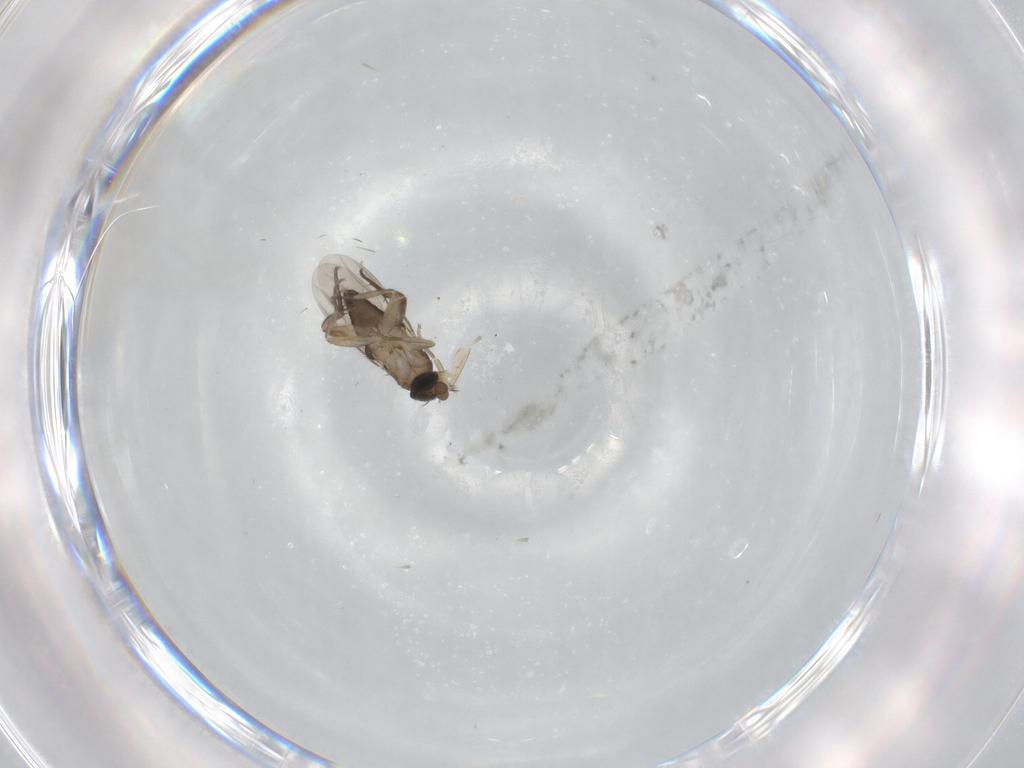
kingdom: Animalia
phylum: Arthropoda
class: Insecta
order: Diptera
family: Phoridae
